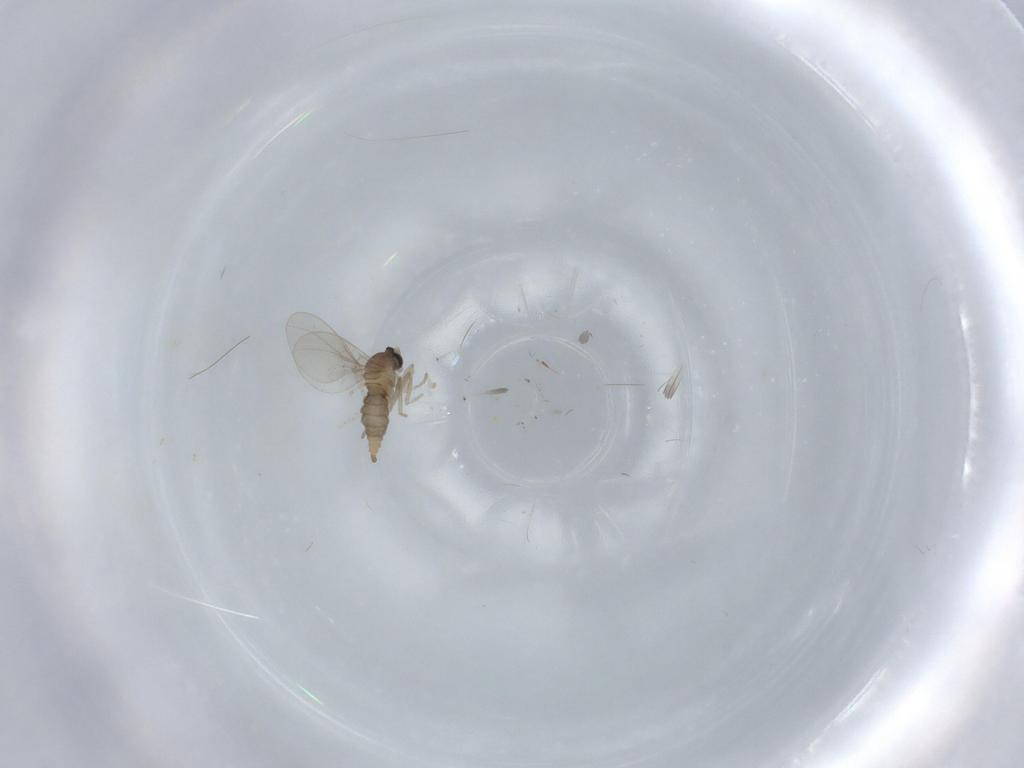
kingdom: Animalia
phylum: Arthropoda
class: Insecta
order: Diptera
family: Cecidomyiidae
